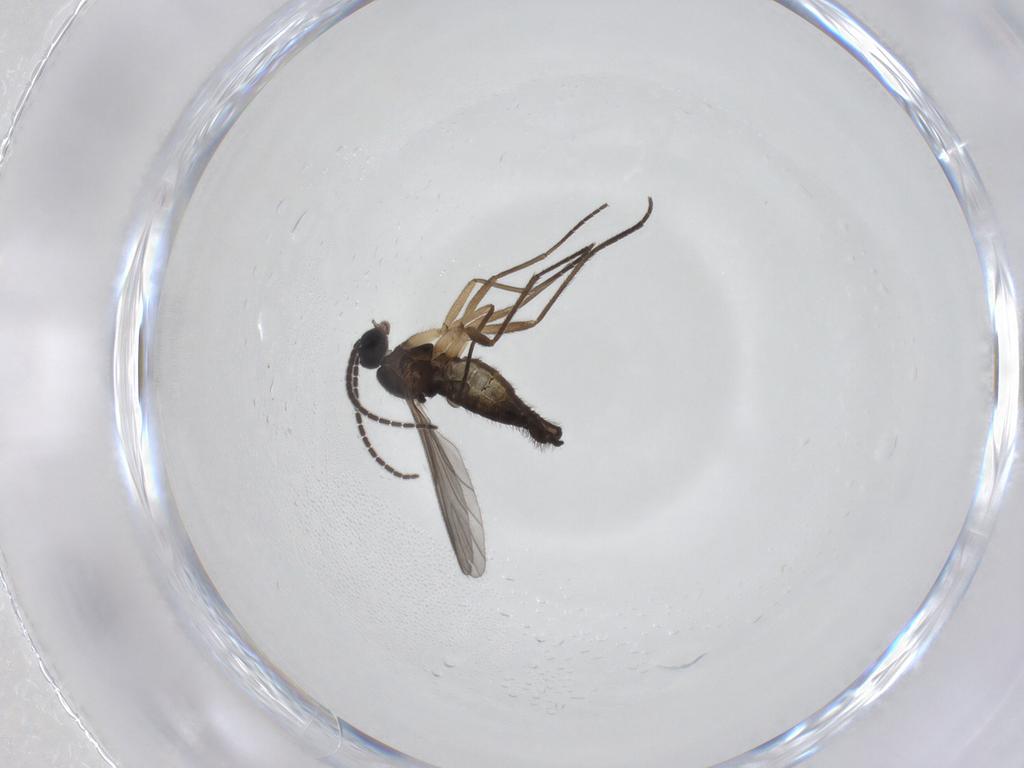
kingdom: Animalia
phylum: Arthropoda
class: Insecta
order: Diptera
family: Sciaridae
